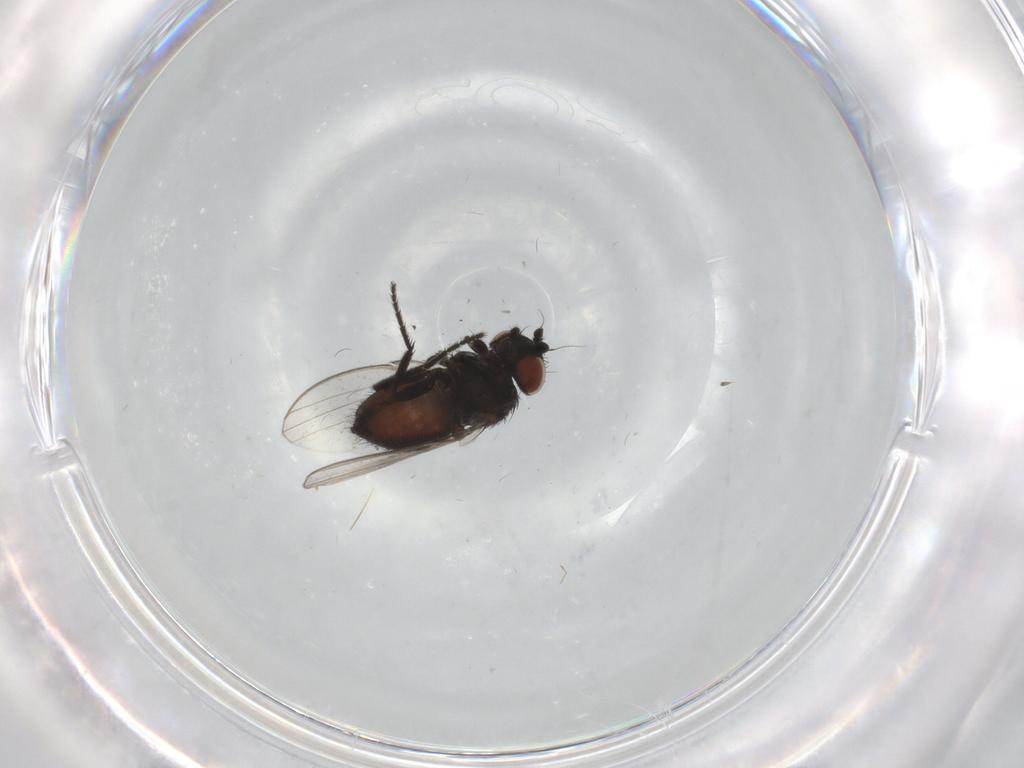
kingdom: Animalia
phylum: Arthropoda
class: Insecta
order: Diptera
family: Milichiidae
